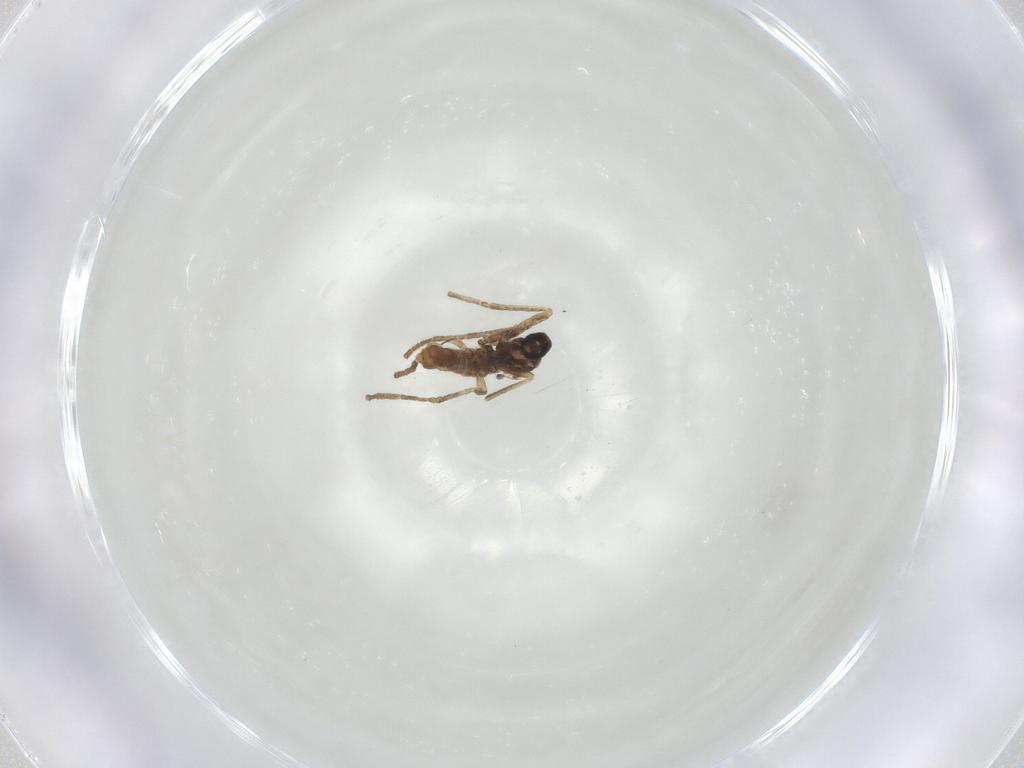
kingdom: Animalia
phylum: Arthropoda
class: Insecta
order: Diptera
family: Cecidomyiidae
